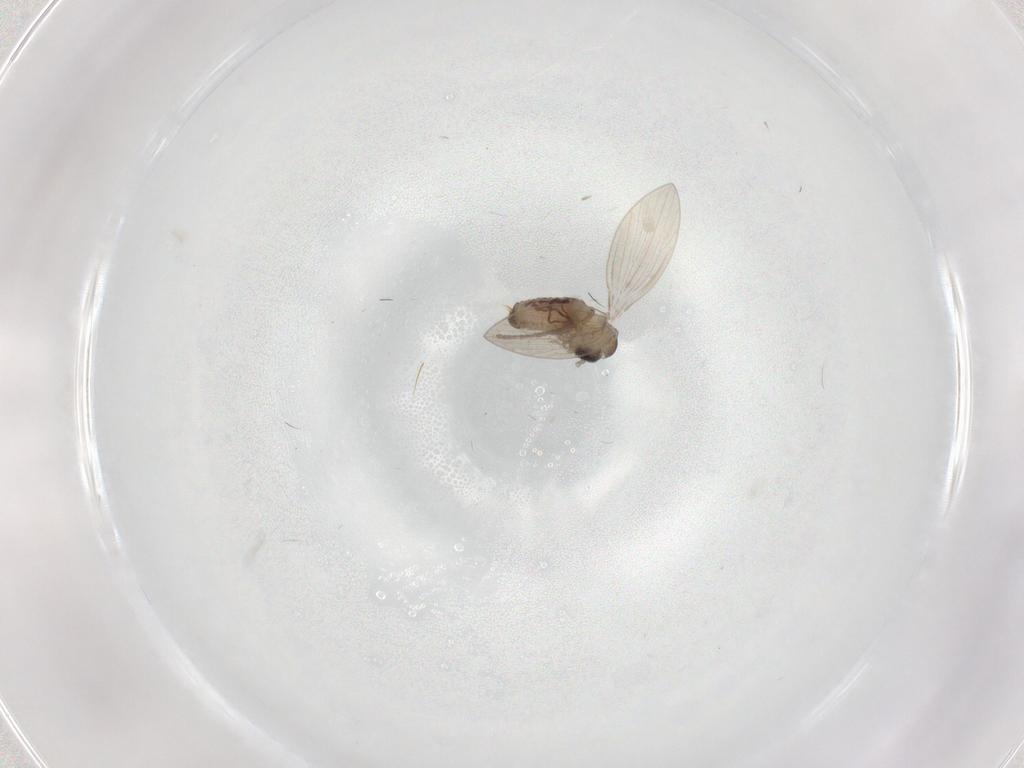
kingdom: Animalia
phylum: Arthropoda
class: Insecta
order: Diptera
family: Psychodidae
